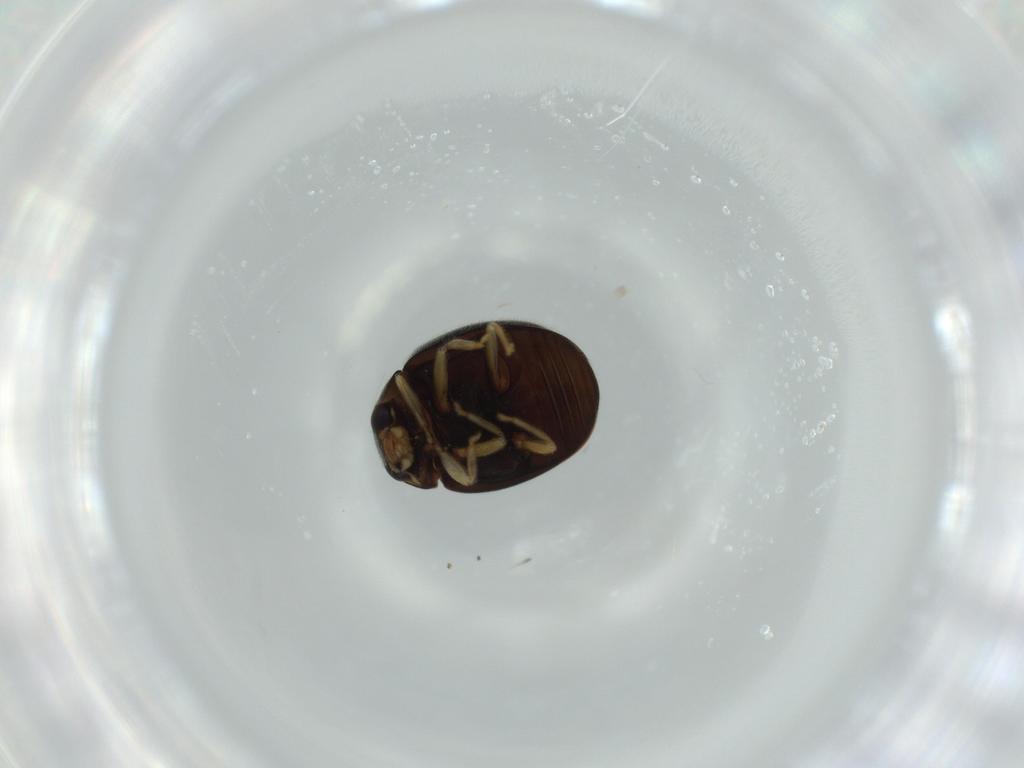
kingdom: Animalia
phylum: Arthropoda
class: Insecta
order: Coleoptera
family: Coccinellidae
